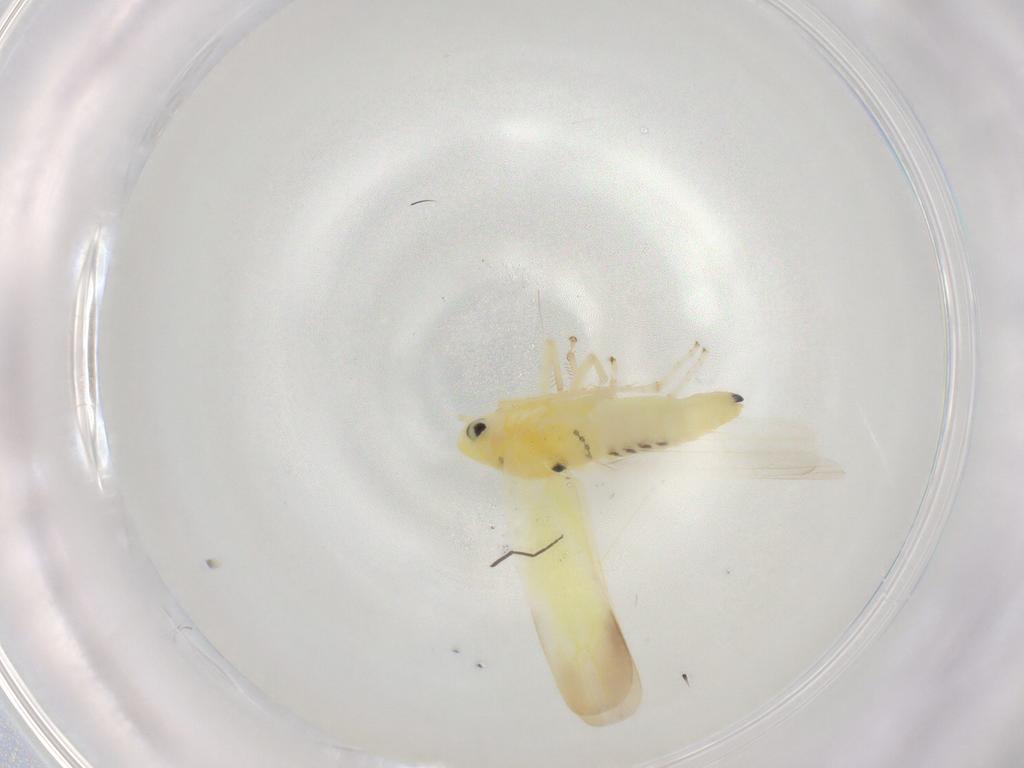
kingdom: Animalia
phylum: Arthropoda
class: Insecta
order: Hemiptera
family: Cicadellidae
